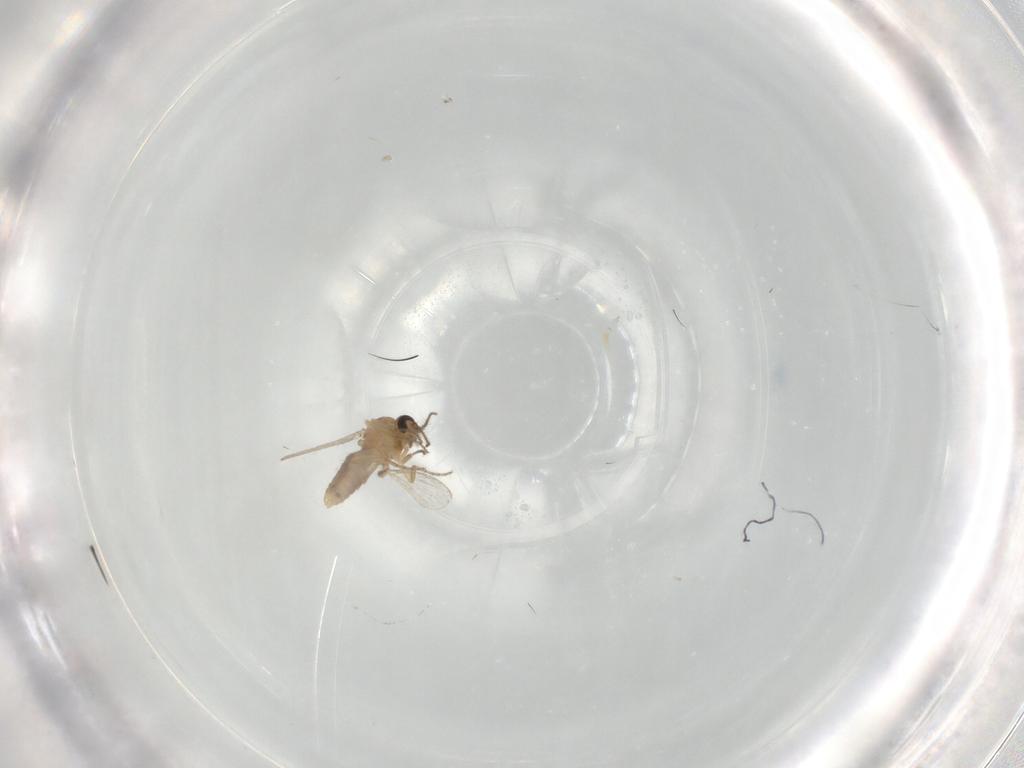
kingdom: Animalia
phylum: Arthropoda
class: Insecta
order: Diptera
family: Ceratopogonidae
